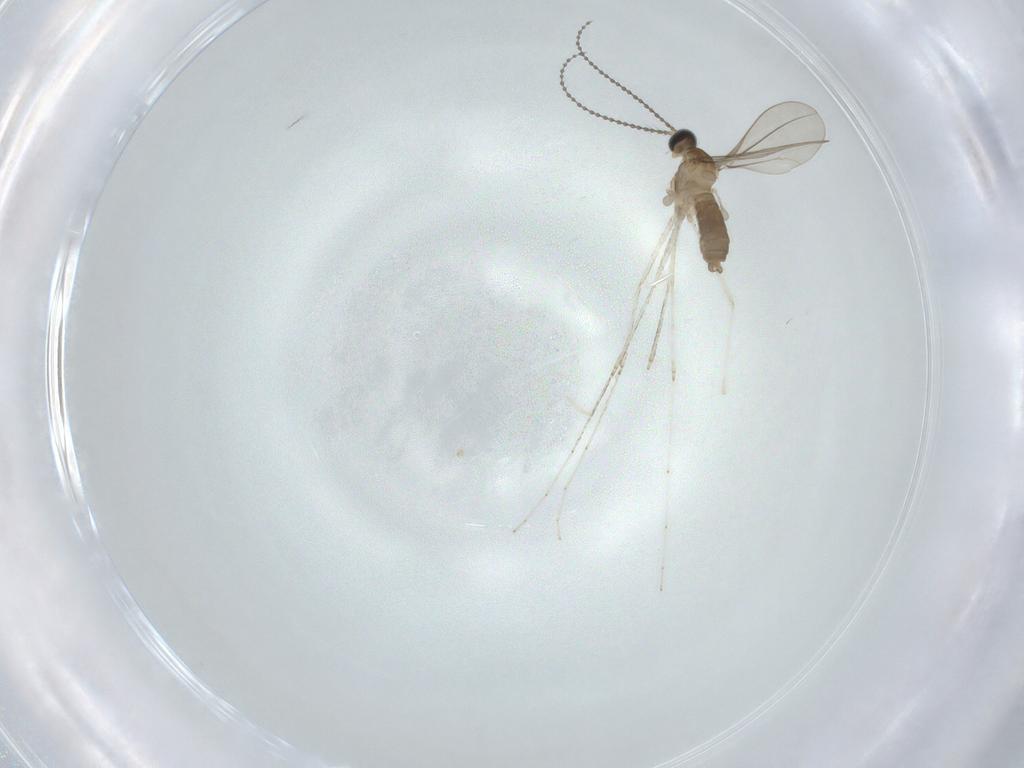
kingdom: Animalia
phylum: Arthropoda
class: Insecta
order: Diptera
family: Cecidomyiidae
